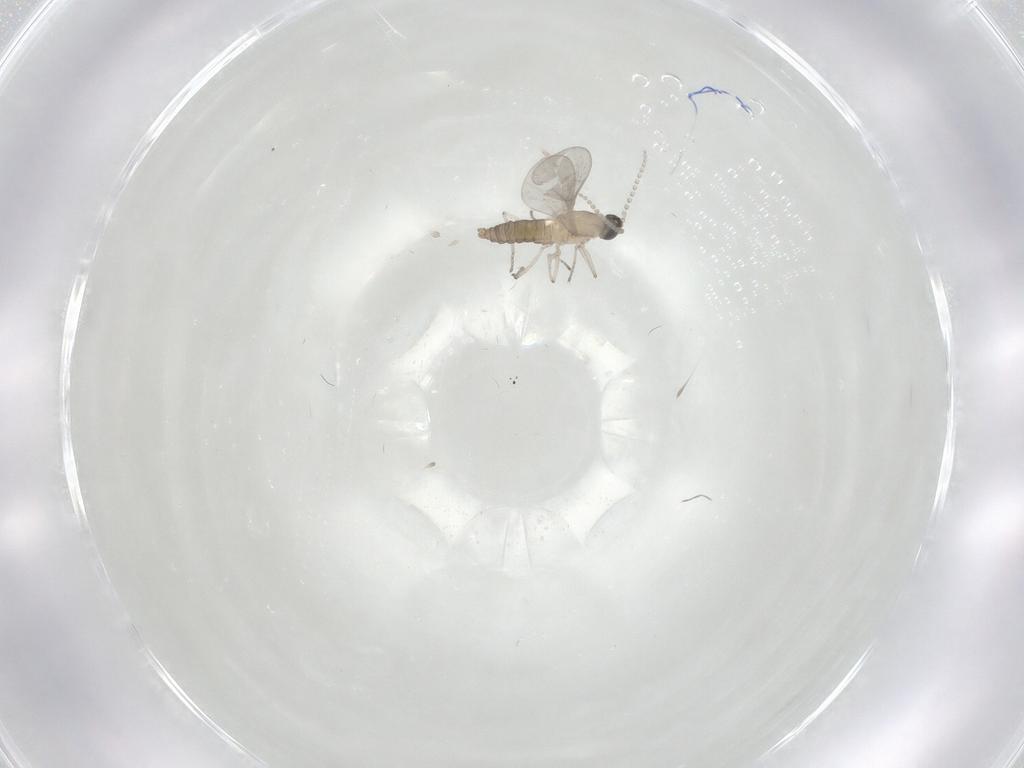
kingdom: Animalia
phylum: Arthropoda
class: Insecta
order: Diptera
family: Cecidomyiidae
